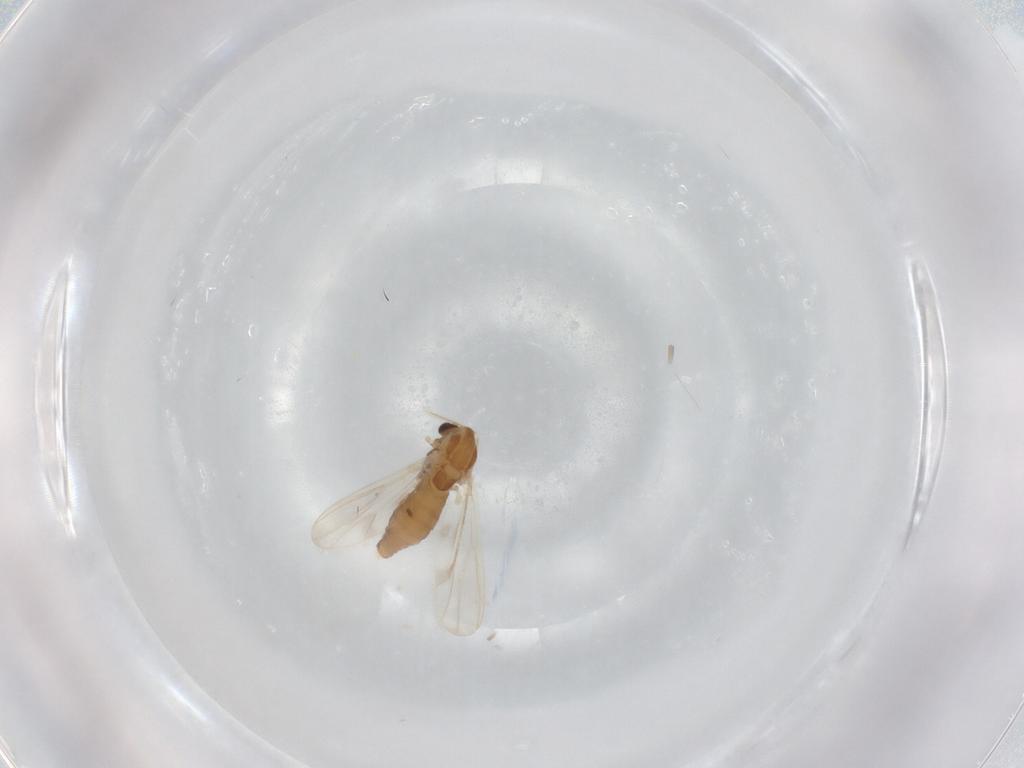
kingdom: Animalia
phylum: Arthropoda
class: Insecta
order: Diptera
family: Chironomidae
